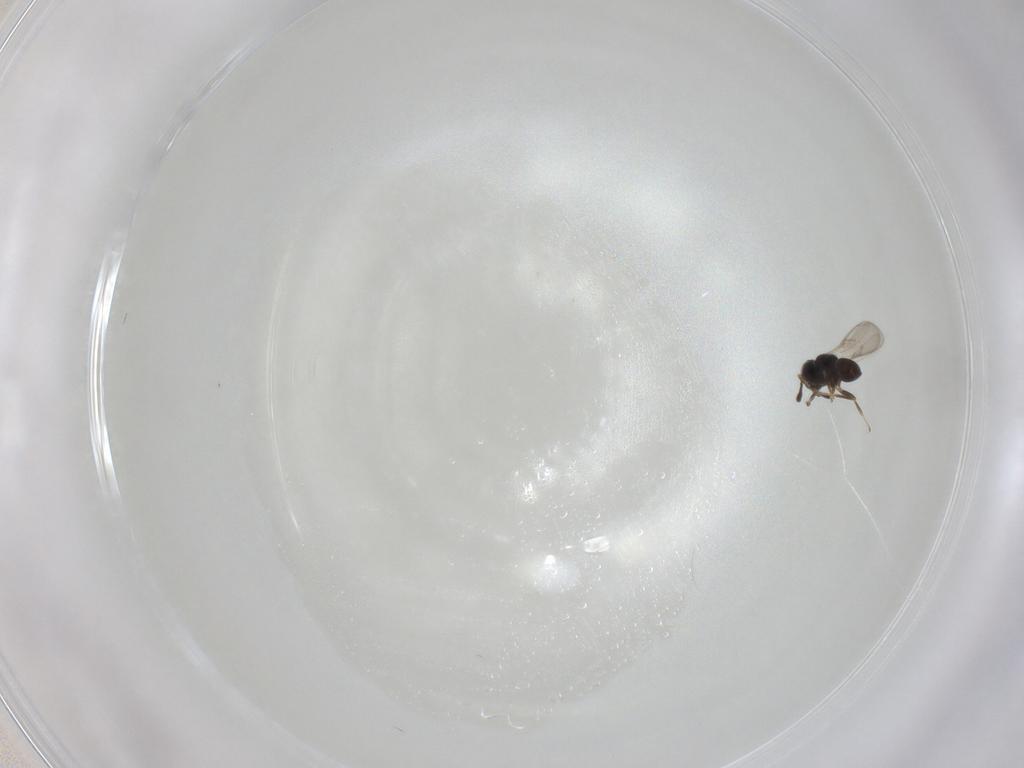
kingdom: Animalia
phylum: Arthropoda
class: Insecta
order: Hymenoptera
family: Scelionidae
